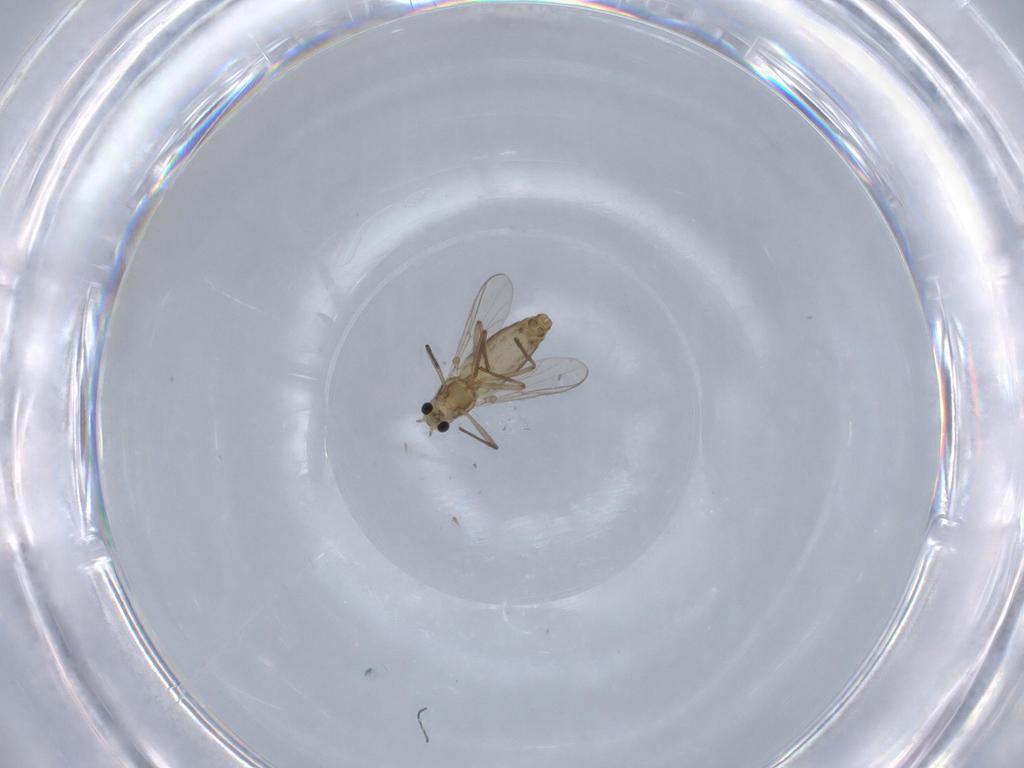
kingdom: Animalia
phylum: Arthropoda
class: Insecta
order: Diptera
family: Chironomidae
